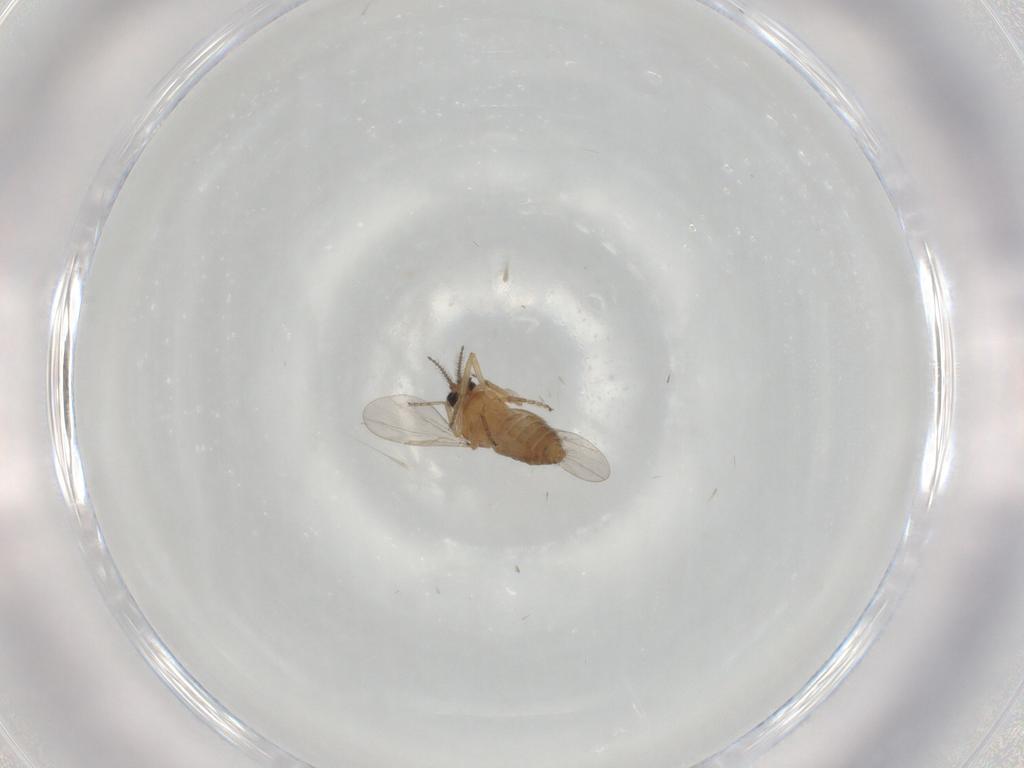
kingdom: Animalia
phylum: Arthropoda
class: Insecta
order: Diptera
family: Ceratopogonidae
